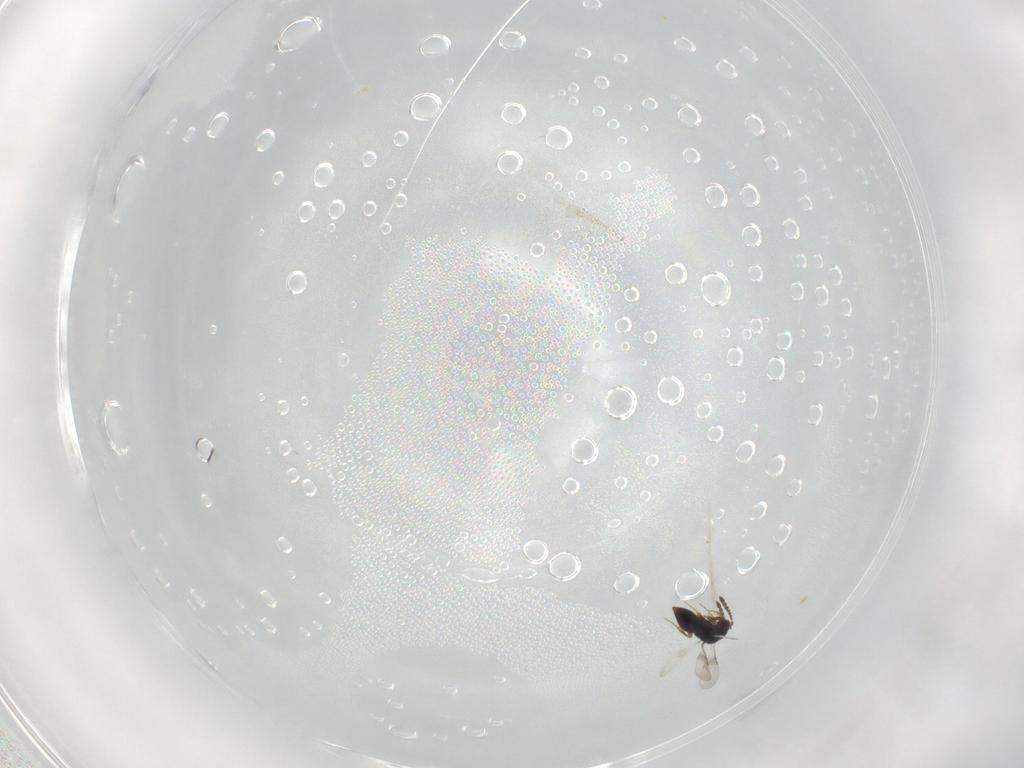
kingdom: Animalia
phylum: Arthropoda
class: Insecta
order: Hymenoptera
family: Ceraphronidae
